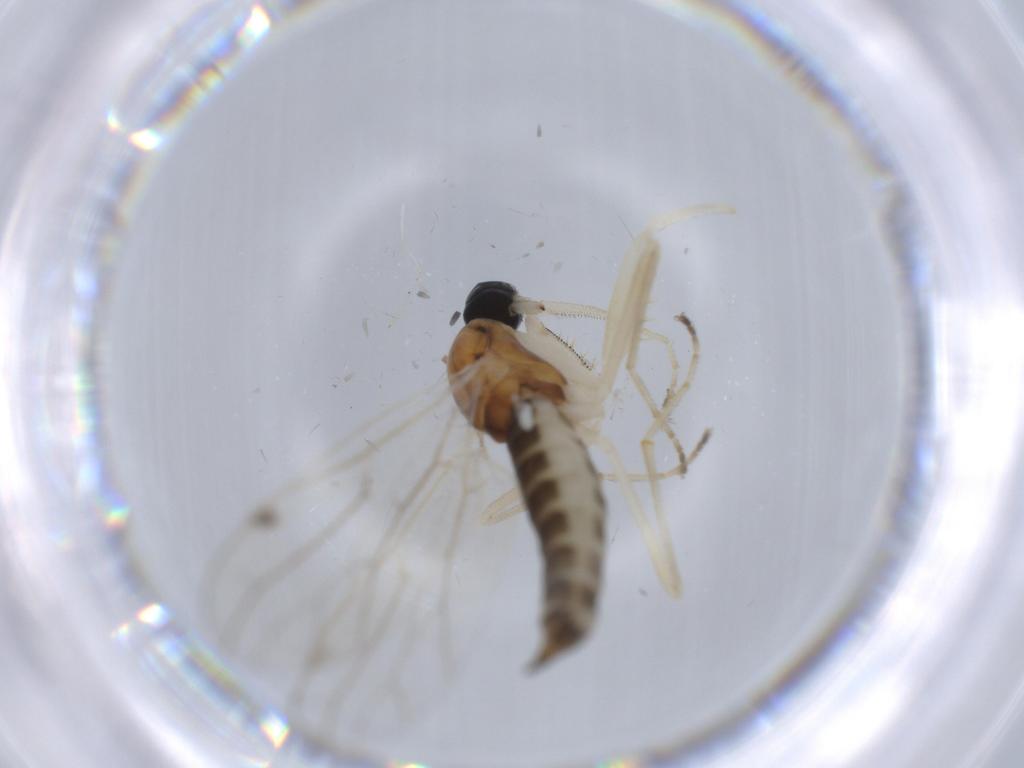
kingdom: Animalia
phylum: Arthropoda
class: Insecta
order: Diptera
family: Empididae
